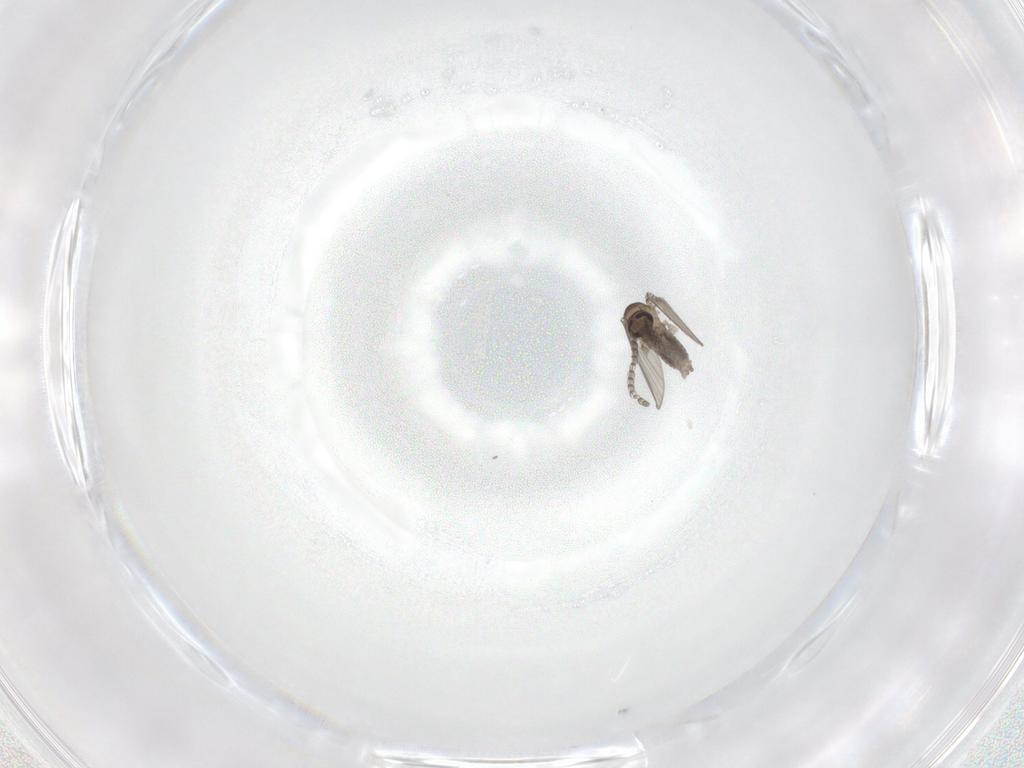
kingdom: Animalia
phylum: Arthropoda
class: Insecta
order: Diptera
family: Psychodidae
